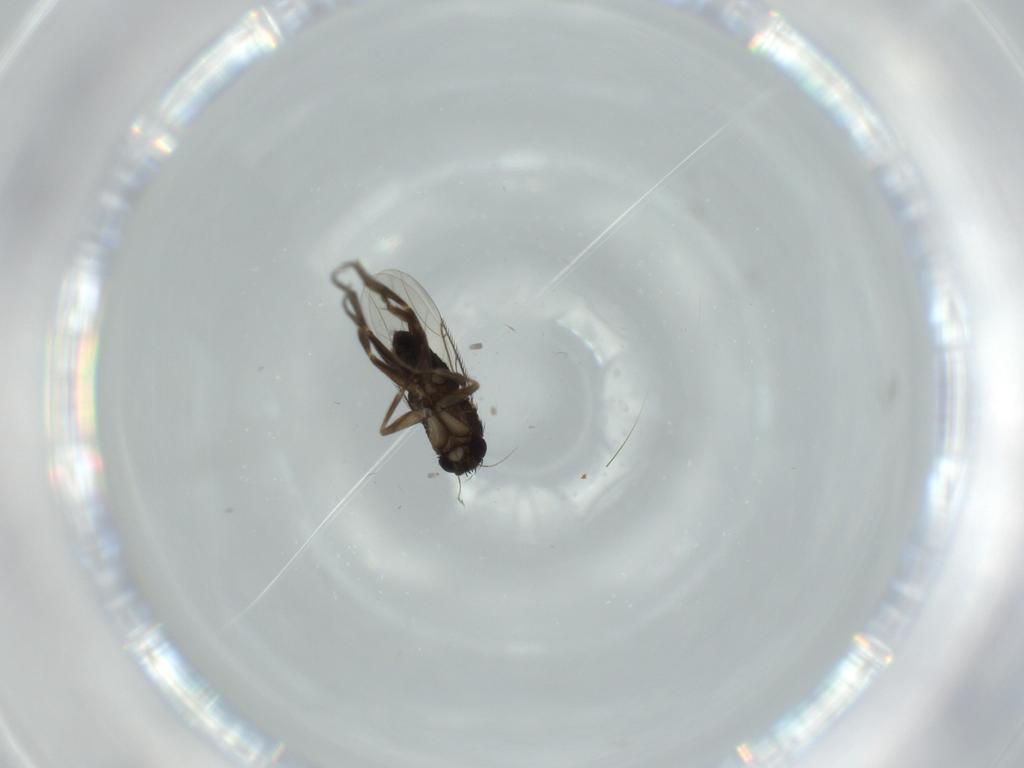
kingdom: Animalia
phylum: Arthropoda
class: Insecta
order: Diptera
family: Phoridae
